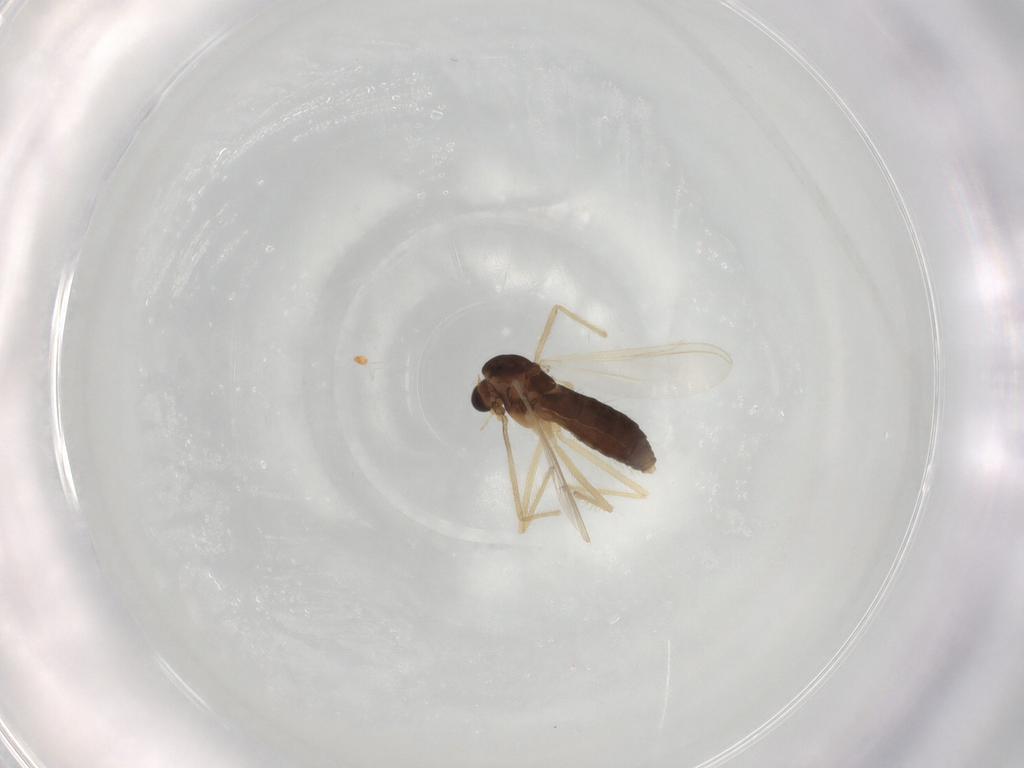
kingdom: Animalia
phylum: Arthropoda
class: Insecta
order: Diptera
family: Chironomidae
